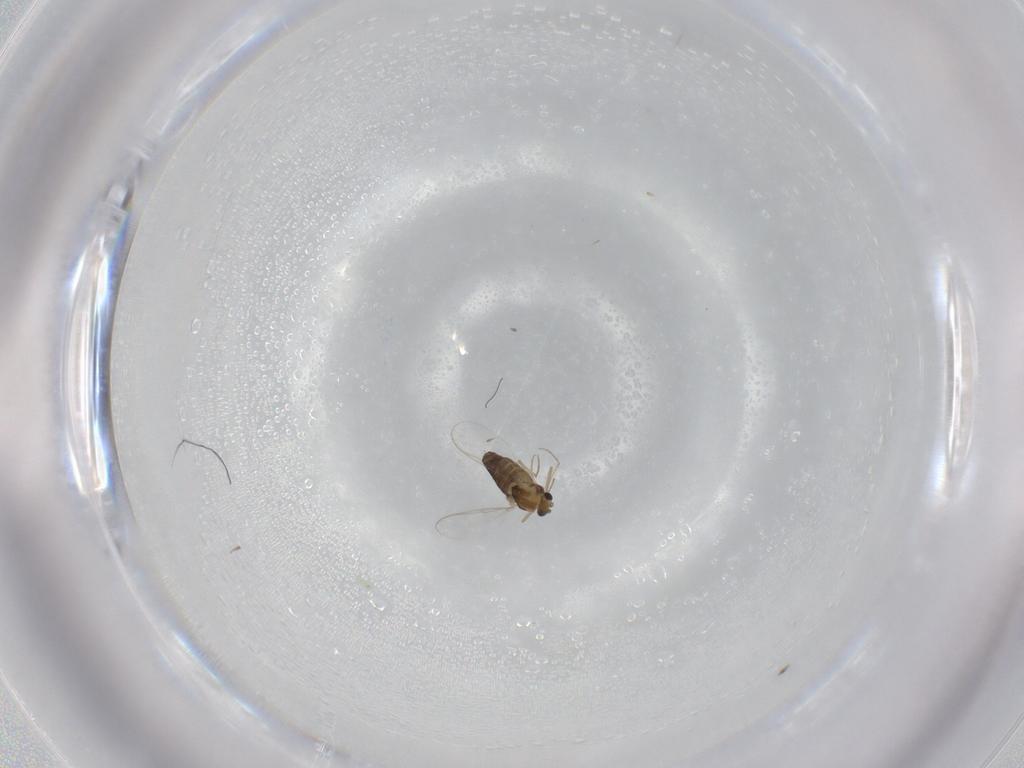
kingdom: Animalia
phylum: Arthropoda
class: Insecta
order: Diptera
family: Chironomidae
